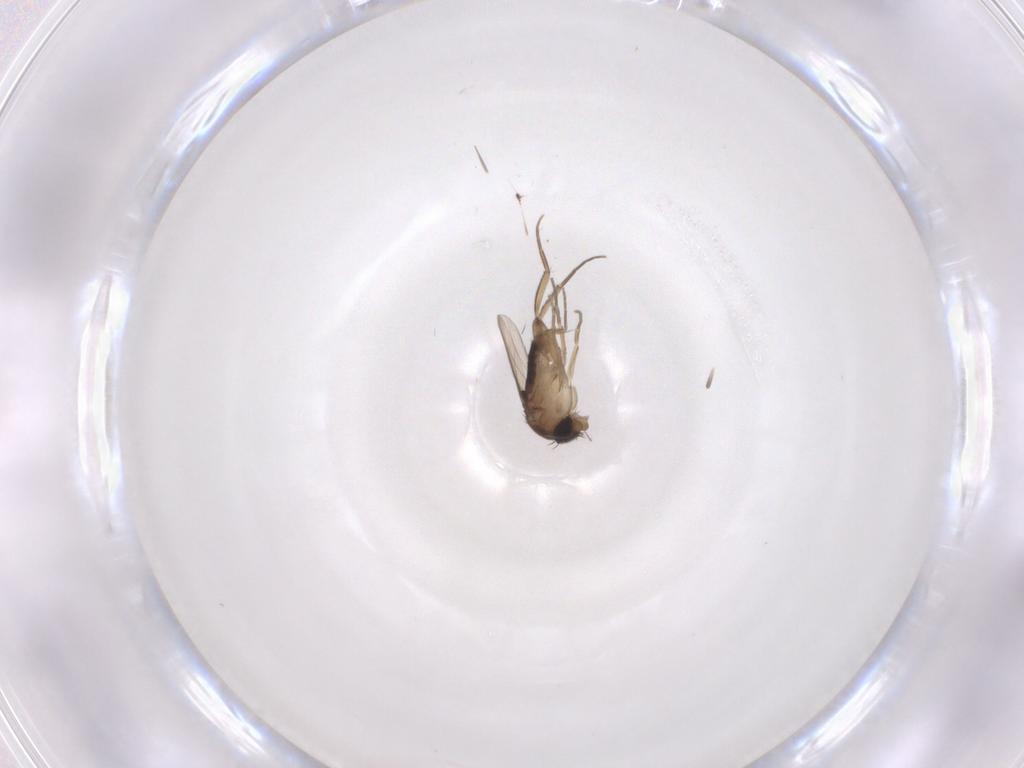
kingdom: Animalia
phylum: Arthropoda
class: Insecta
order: Diptera
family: Phoridae
